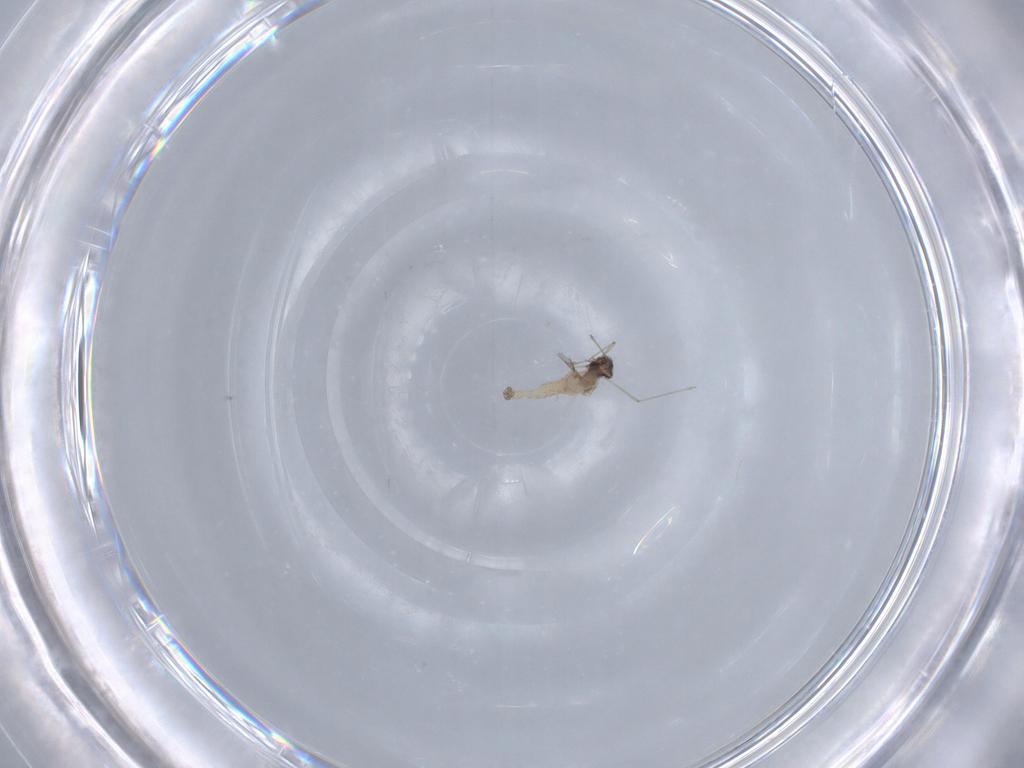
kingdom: Animalia
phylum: Arthropoda
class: Insecta
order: Diptera
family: Cecidomyiidae
